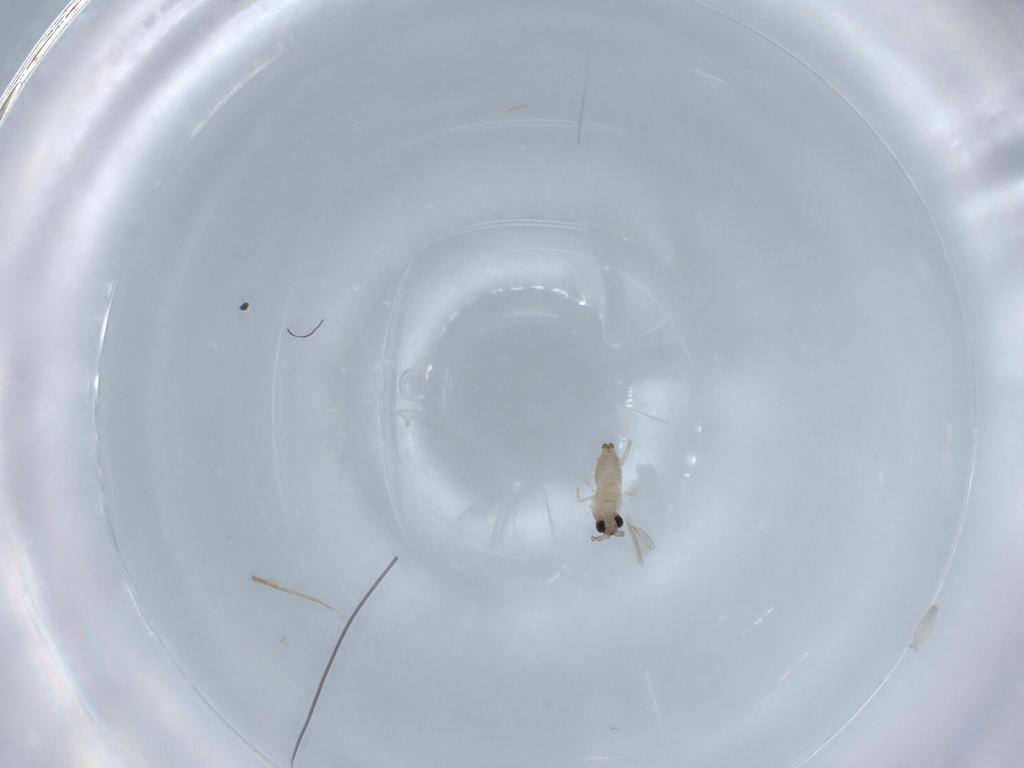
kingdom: Animalia
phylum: Arthropoda
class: Insecta
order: Diptera
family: Cecidomyiidae
